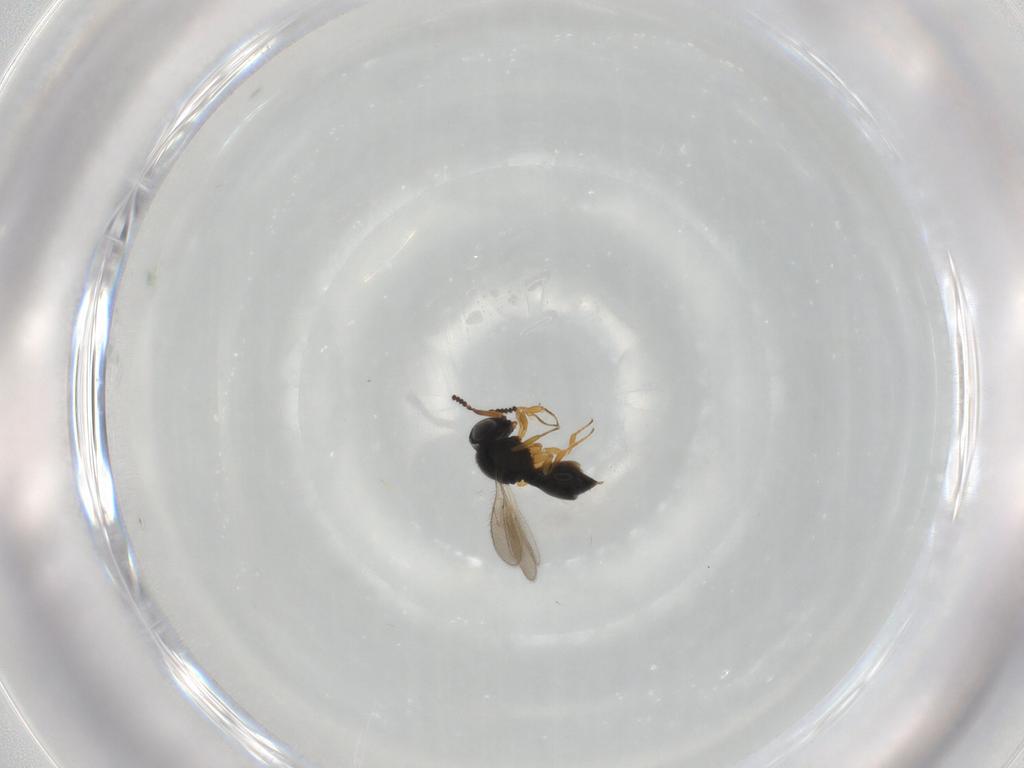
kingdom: Animalia
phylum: Arthropoda
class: Insecta
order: Hymenoptera
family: Scelionidae
